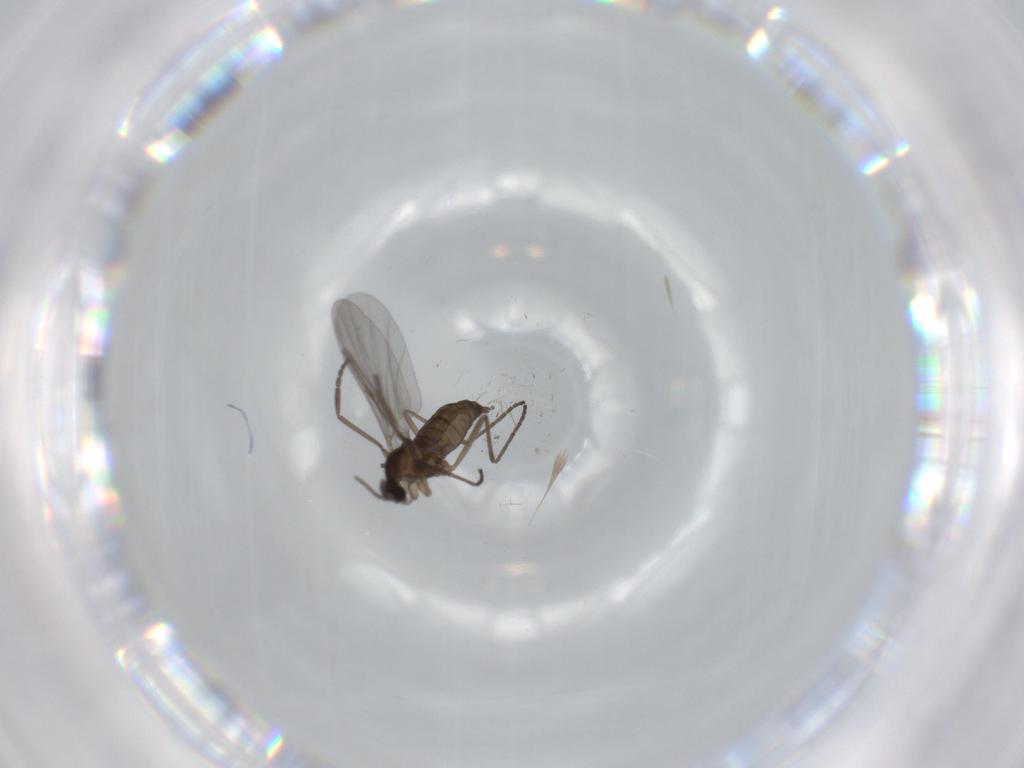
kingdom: Animalia
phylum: Arthropoda
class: Insecta
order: Diptera
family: Cecidomyiidae
